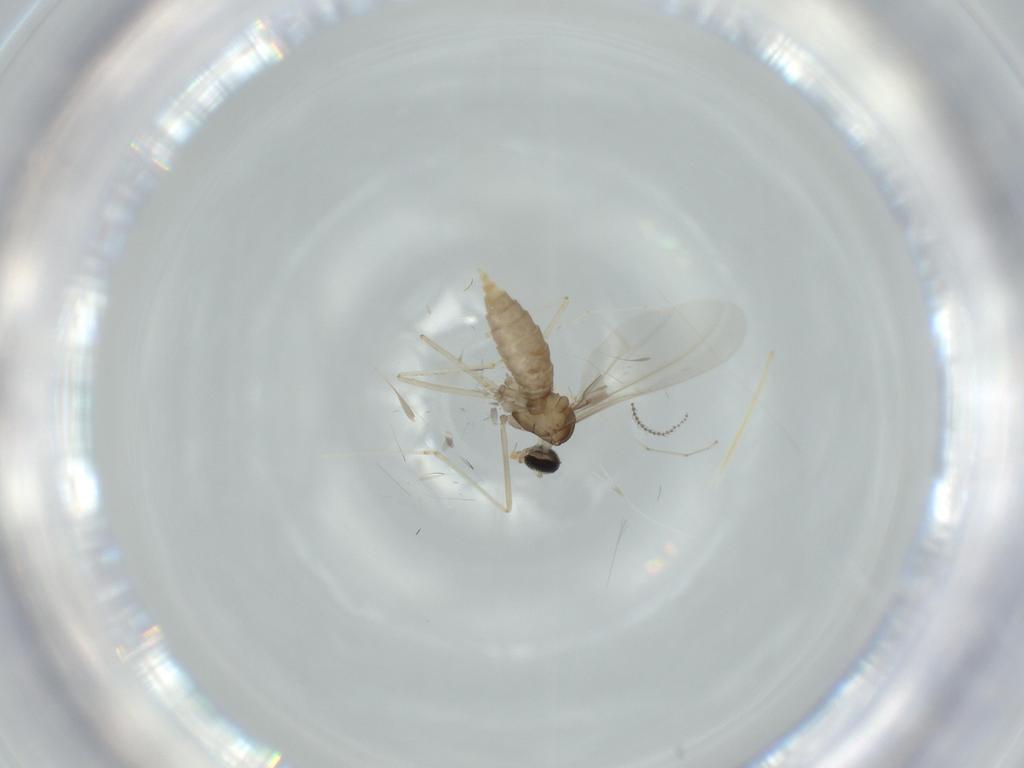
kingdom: Animalia
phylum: Arthropoda
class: Insecta
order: Diptera
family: Cecidomyiidae
